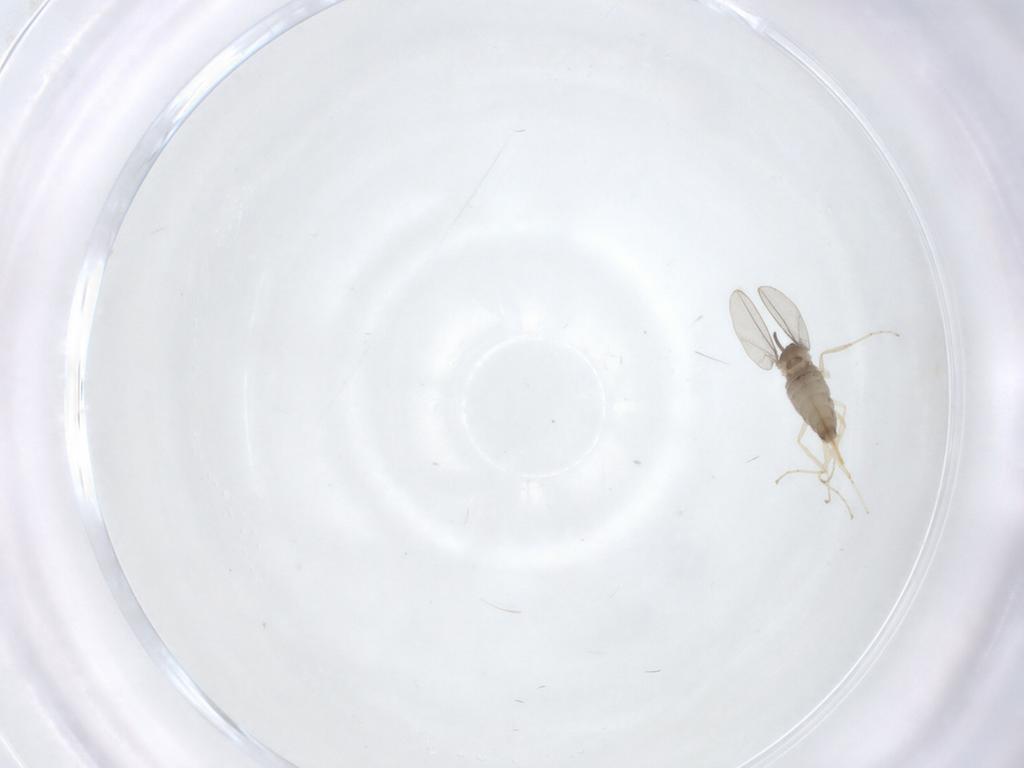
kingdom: Animalia
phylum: Arthropoda
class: Insecta
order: Diptera
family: Cecidomyiidae
